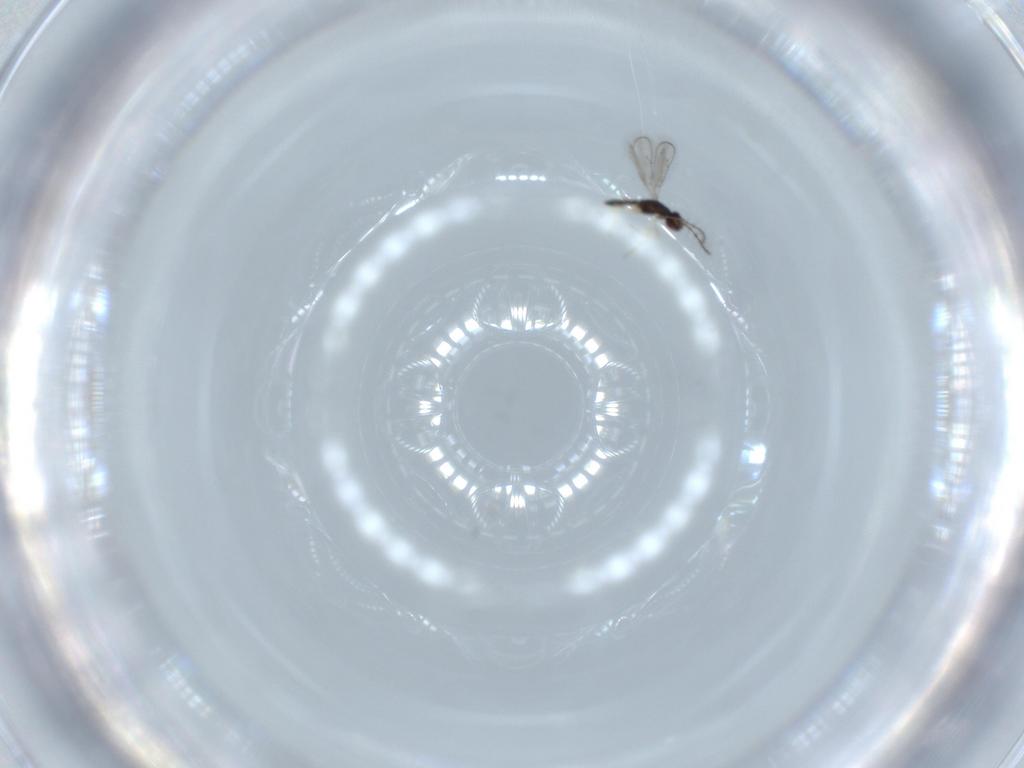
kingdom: Animalia
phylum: Arthropoda
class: Insecta
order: Hymenoptera
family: Pteromalidae
